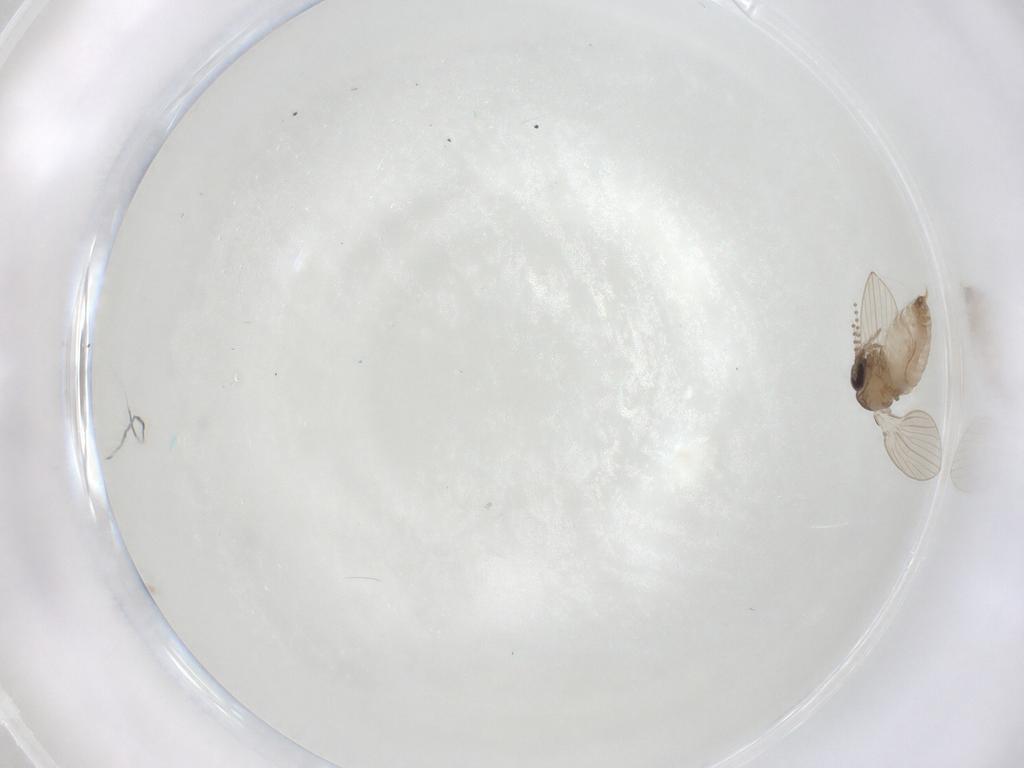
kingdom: Animalia
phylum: Arthropoda
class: Insecta
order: Diptera
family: Psychodidae
